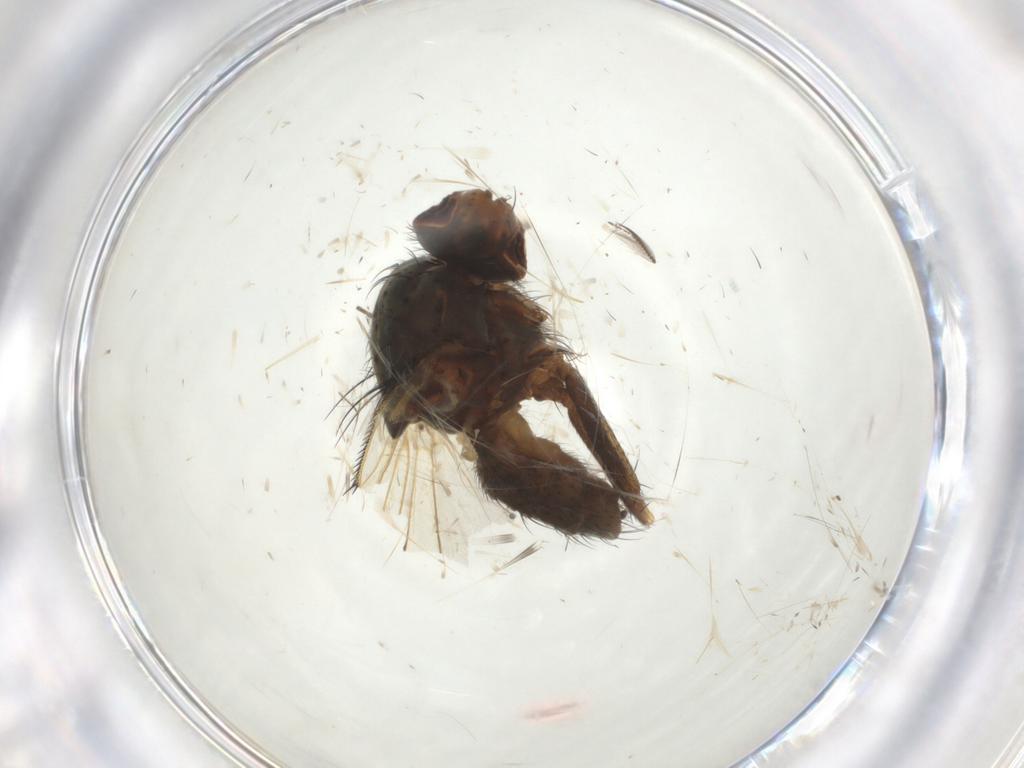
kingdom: Animalia
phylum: Arthropoda
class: Insecta
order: Diptera
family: Anthomyiidae
